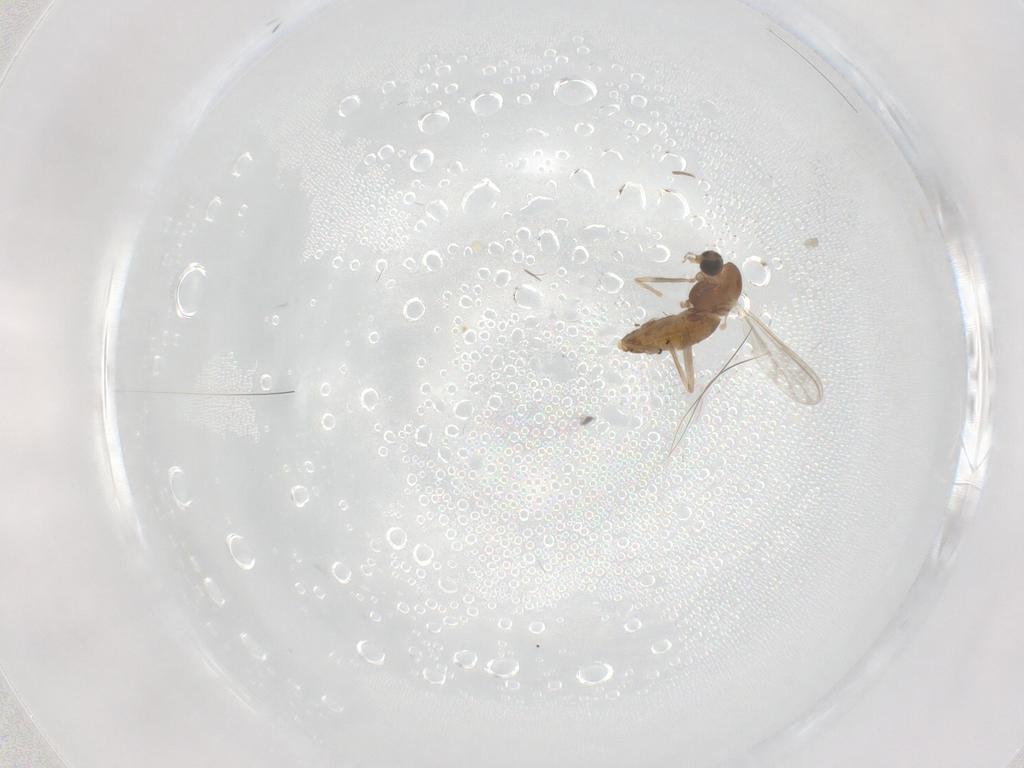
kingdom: Animalia
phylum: Arthropoda
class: Insecta
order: Diptera
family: Chironomidae
